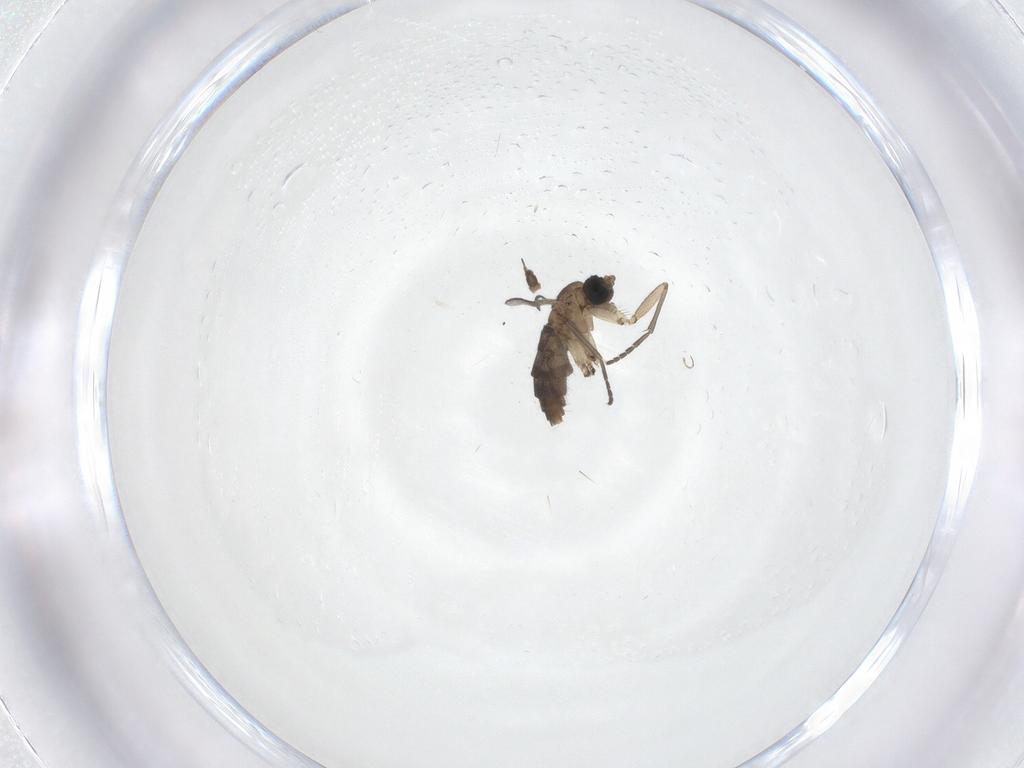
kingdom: Animalia
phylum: Arthropoda
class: Insecta
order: Diptera
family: Sciaridae
